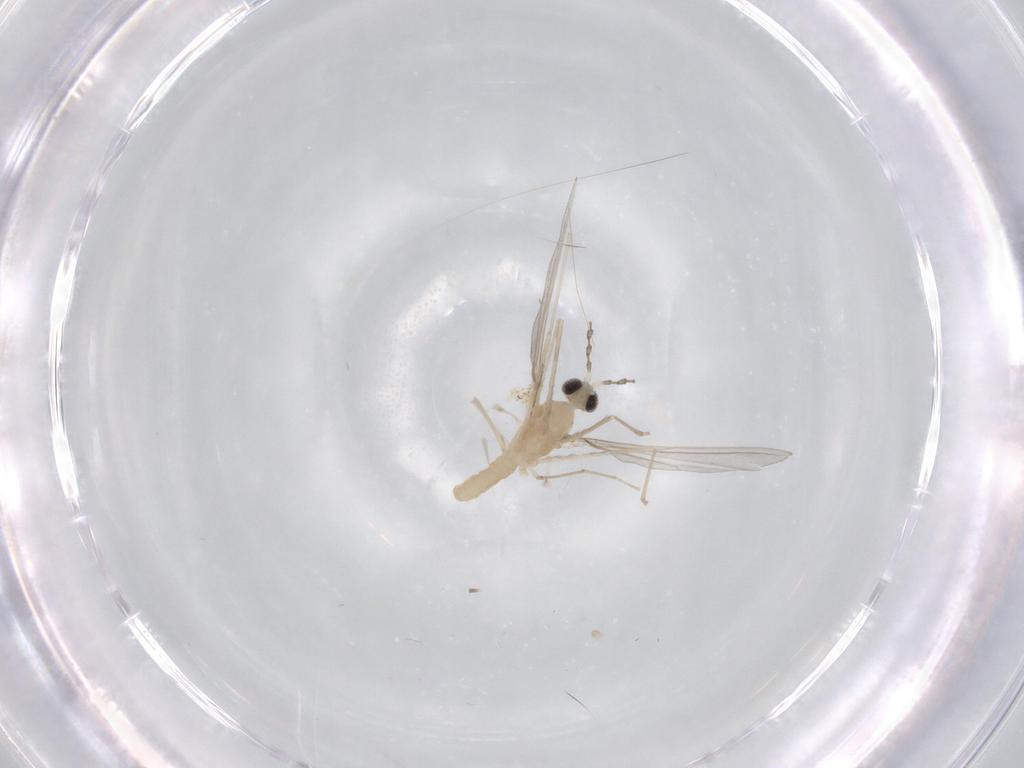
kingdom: Animalia
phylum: Arthropoda
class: Insecta
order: Diptera
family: Cecidomyiidae
